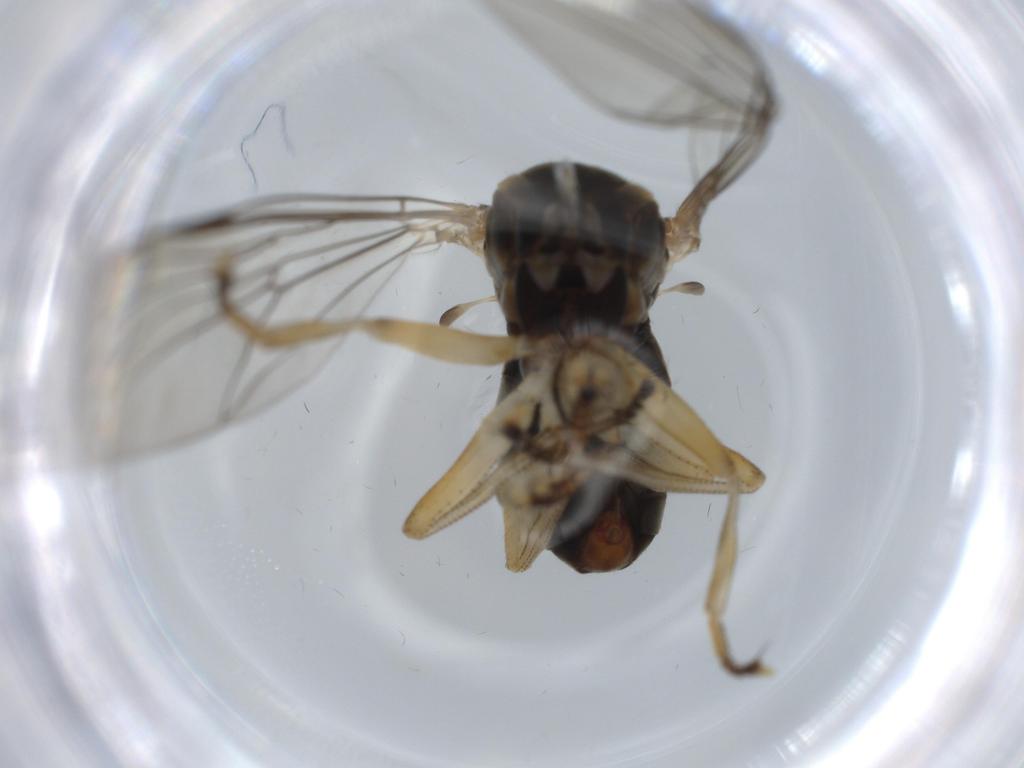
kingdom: Animalia
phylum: Arthropoda
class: Insecta
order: Diptera
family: Pipunculidae
